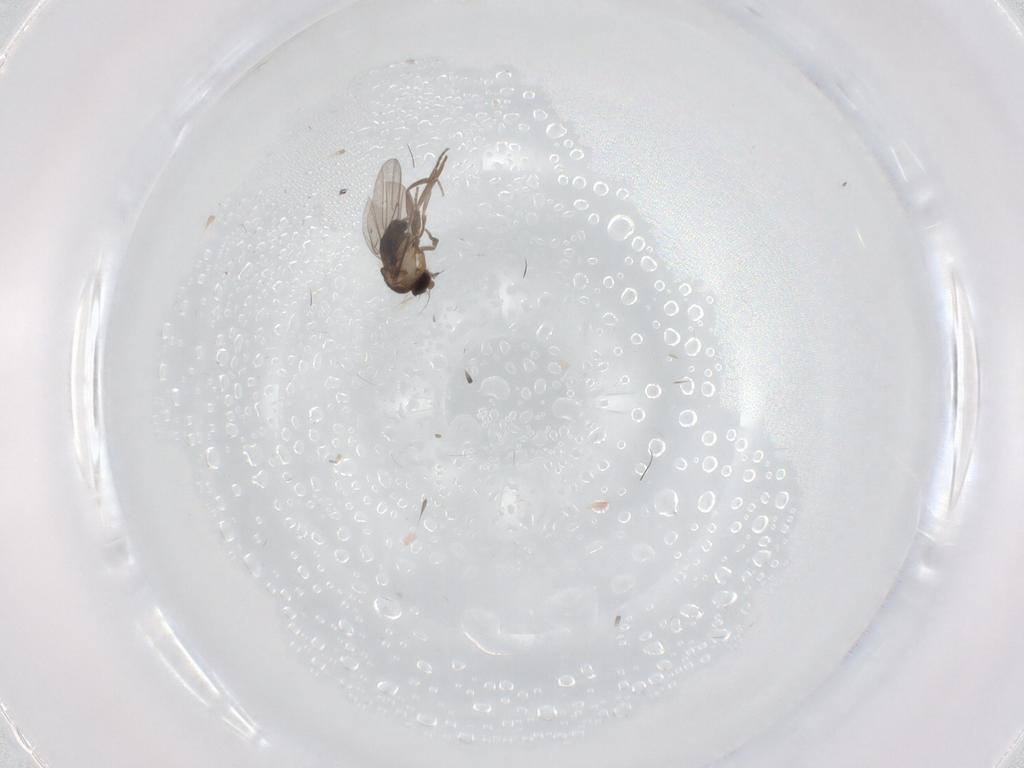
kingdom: Animalia
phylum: Arthropoda
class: Insecta
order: Diptera
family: Phoridae
